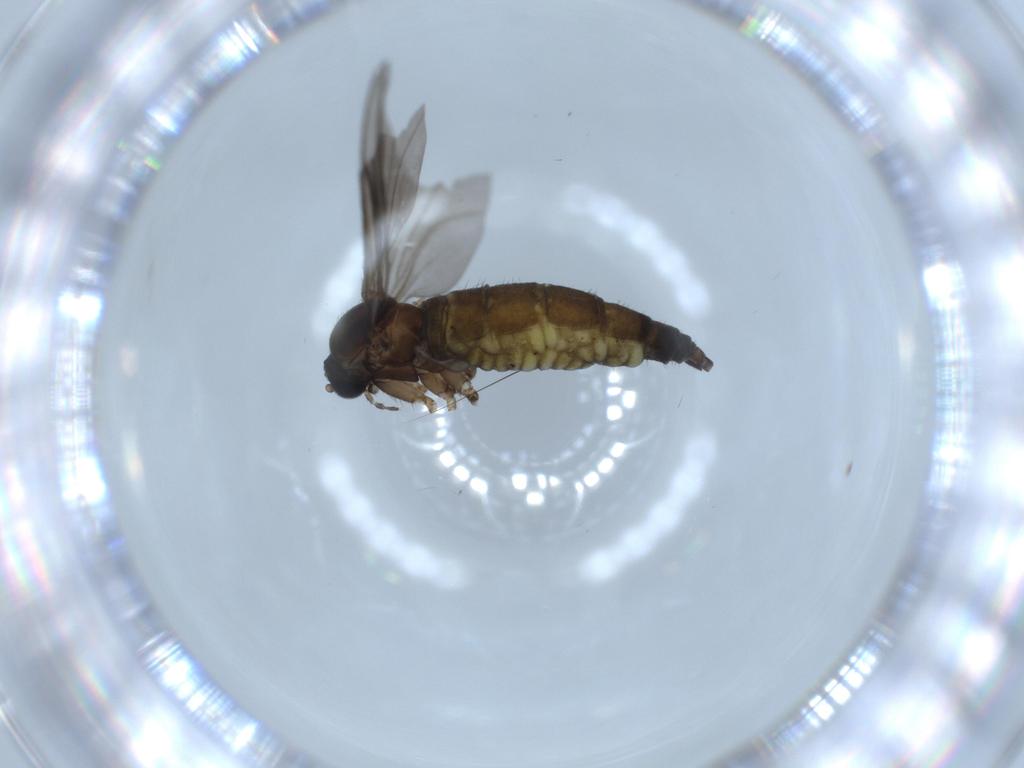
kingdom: Animalia
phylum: Arthropoda
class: Insecta
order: Diptera
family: Sciaridae
